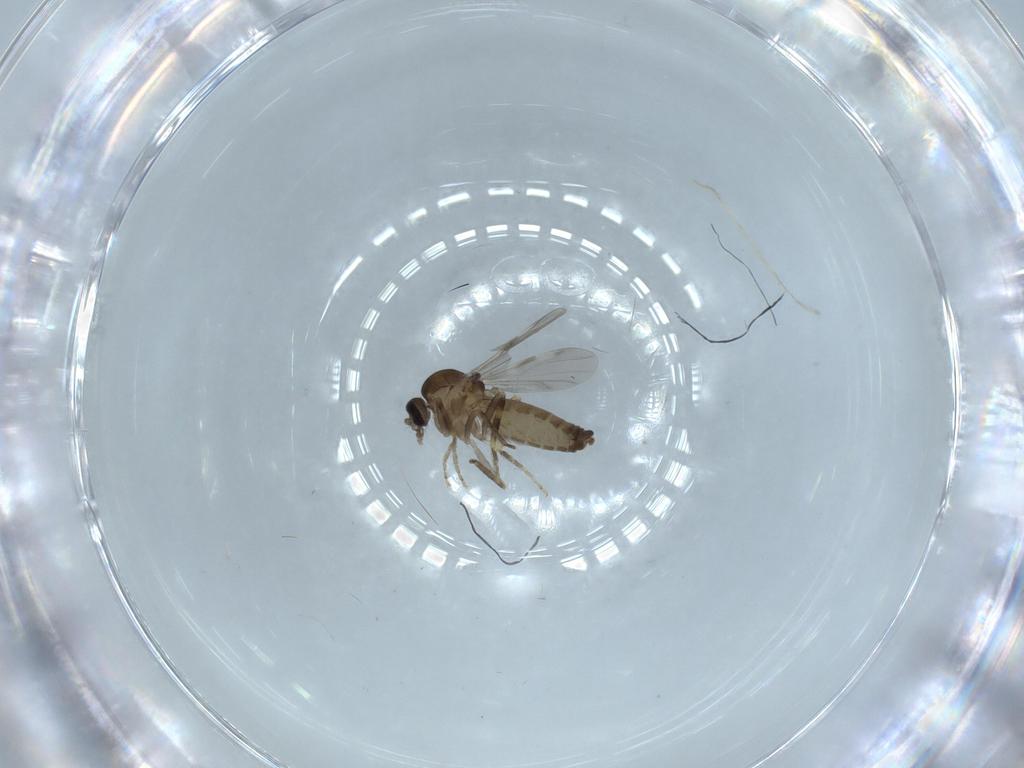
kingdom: Animalia
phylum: Arthropoda
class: Insecta
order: Diptera
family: Ceratopogonidae
